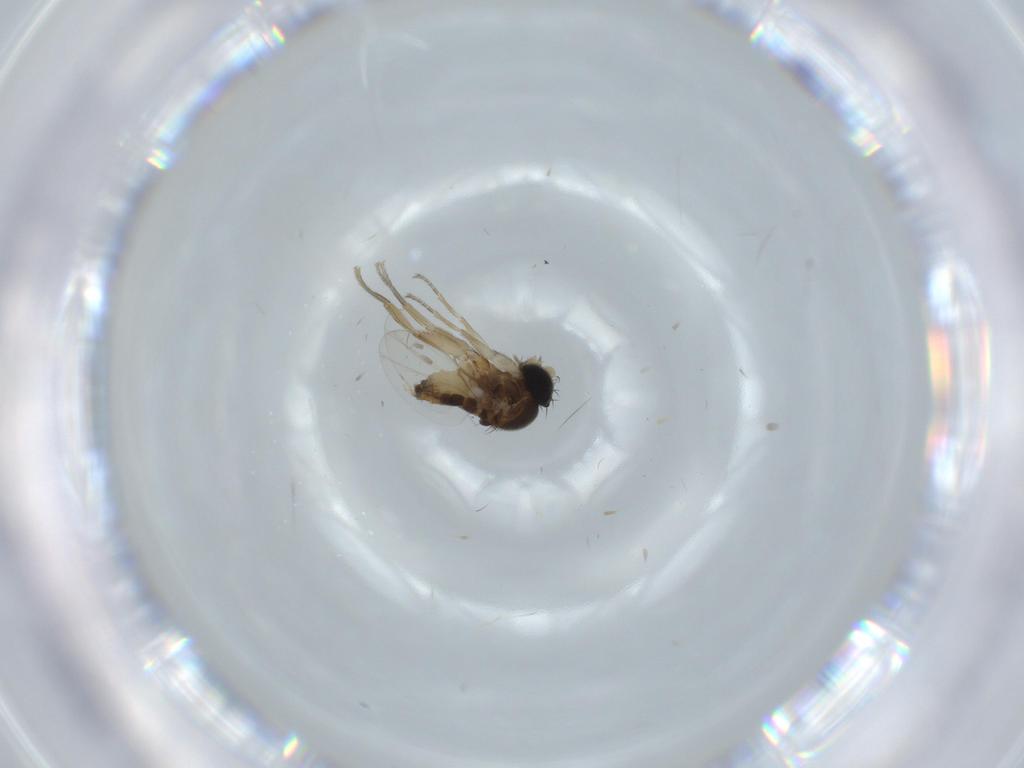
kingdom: Animalia
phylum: Arthropoda
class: Insecta
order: Diptera
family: Phoridae
